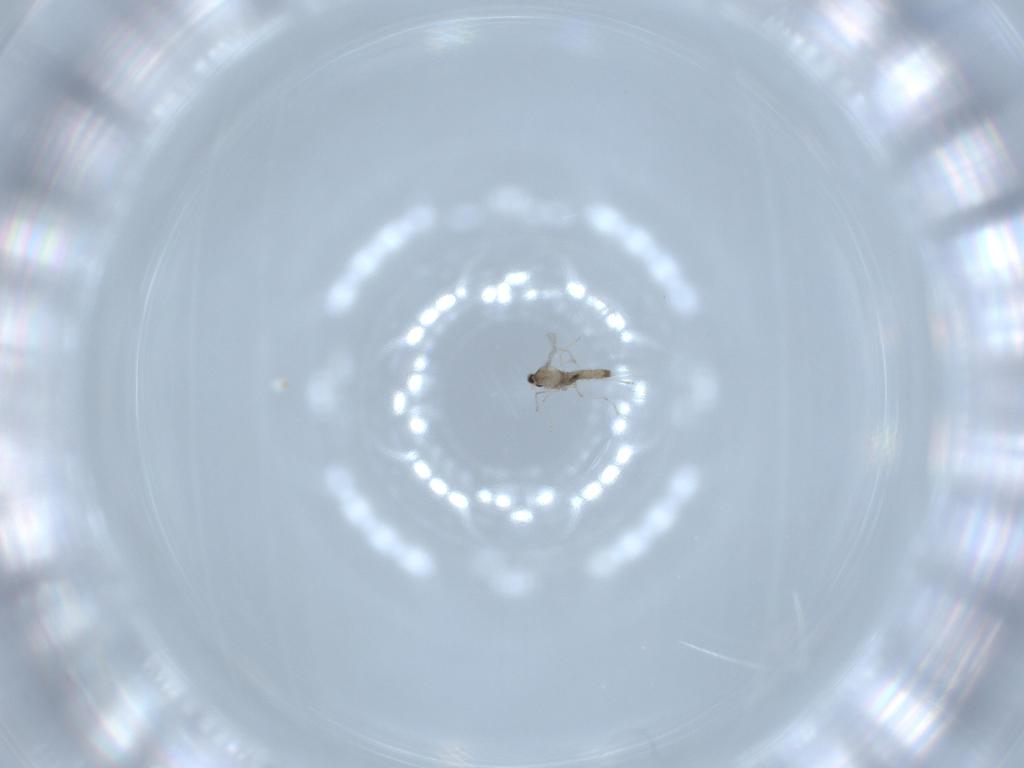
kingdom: Animalia
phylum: Arthropoda
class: Insecta
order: Diptera
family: Cecidomyiidae
